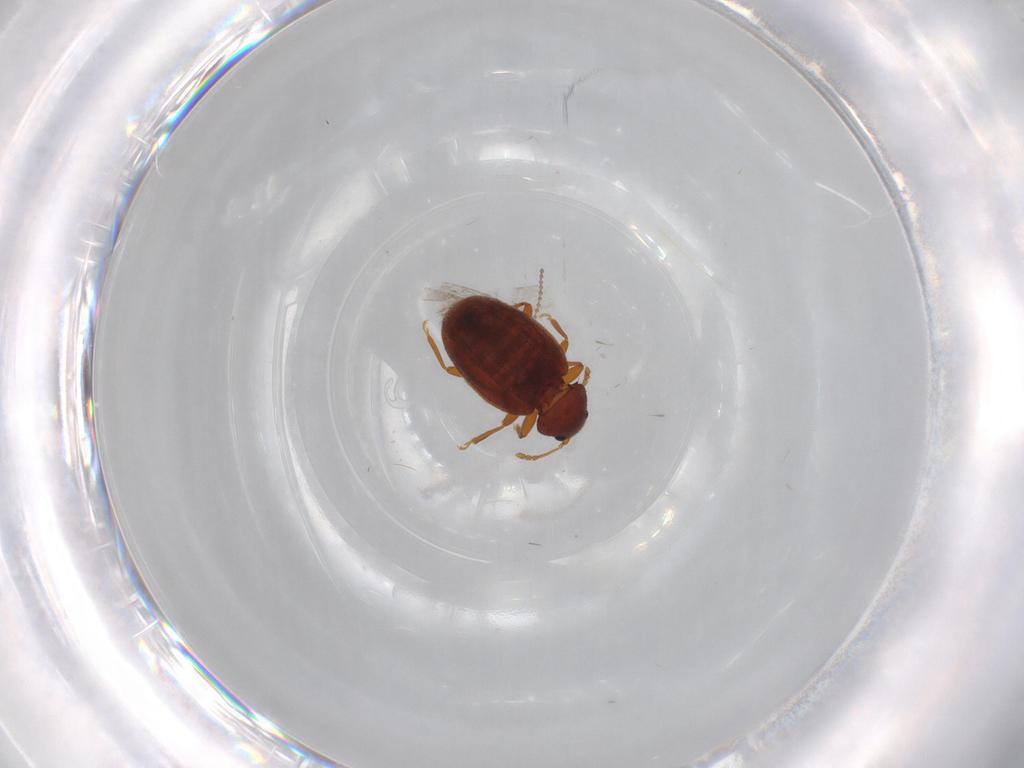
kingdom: Animalia
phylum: Arthropoda
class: Insecta
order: Coleoptera
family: Latridiidae
